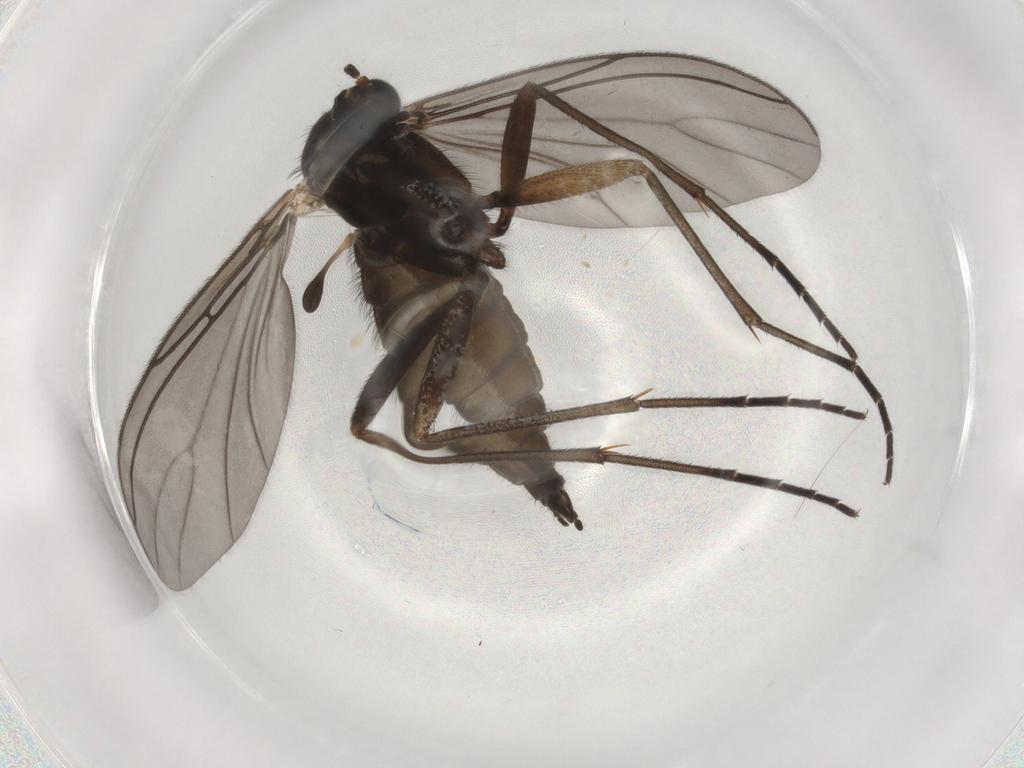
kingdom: Animalia
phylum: Arthropoda
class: Insecta
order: Diptera
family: Sciaridae
